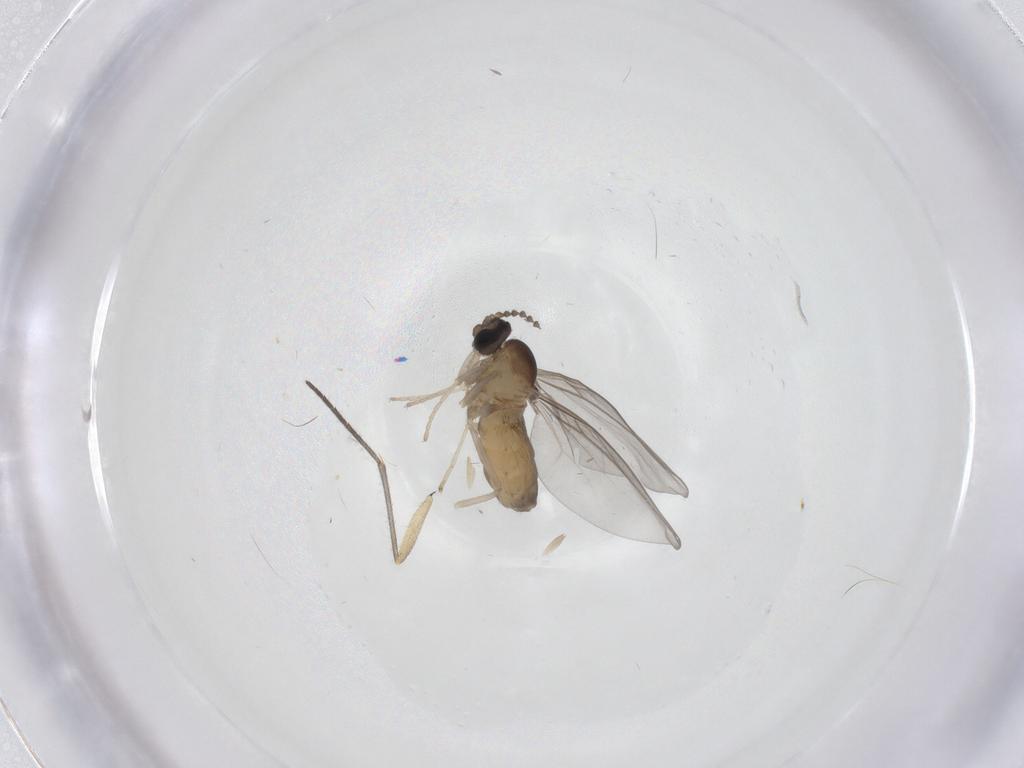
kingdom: Animalia
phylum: Arthropoda
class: Insecta
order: Diptera
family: Cecidomyiidae
